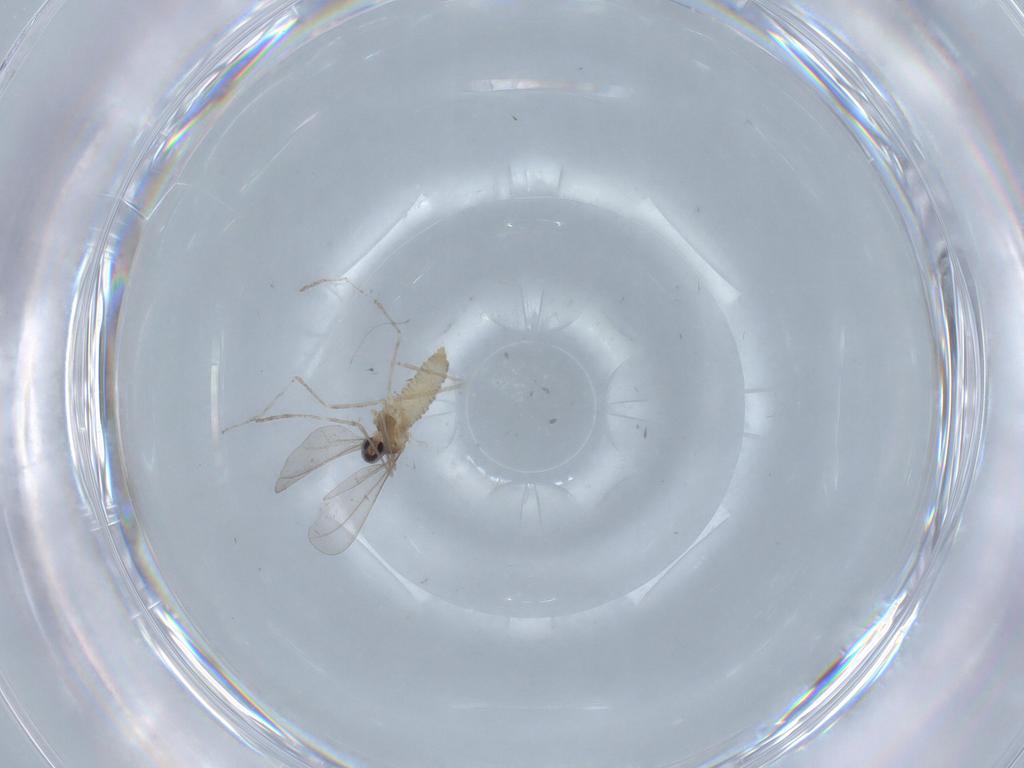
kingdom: Animalia
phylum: Arthropoda
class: Insecta
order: Diptera
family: Cecidomyiidae
